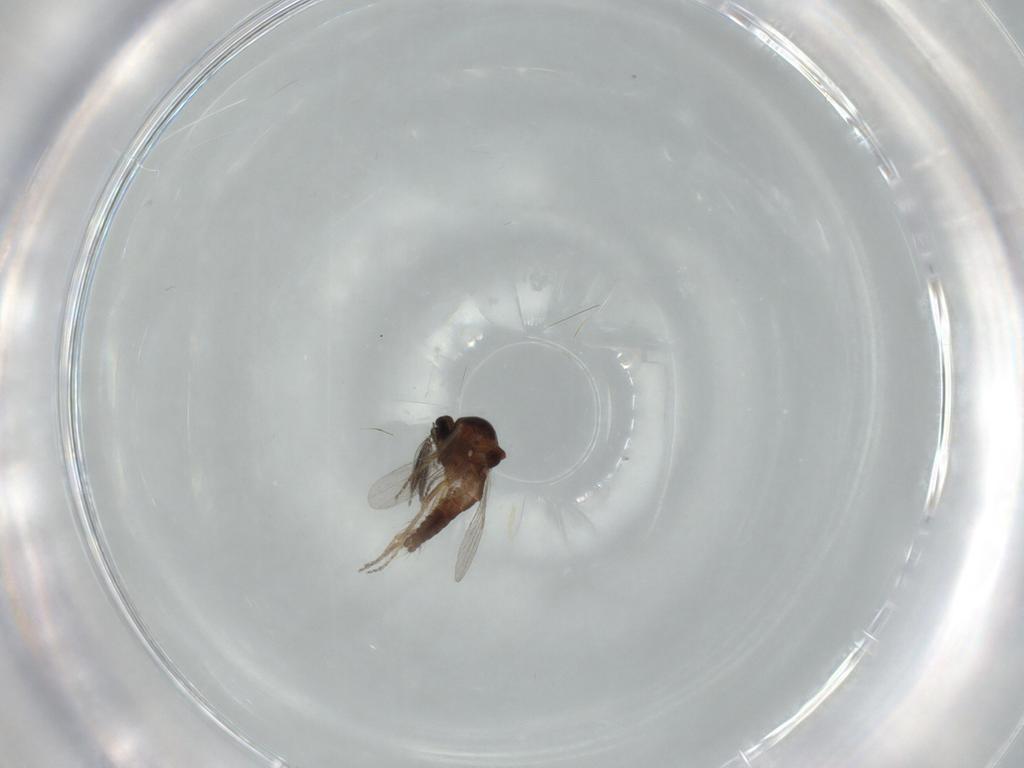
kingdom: Animalia
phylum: Arthropoda
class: Insecta
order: Diptera
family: Ceratopogonidae
